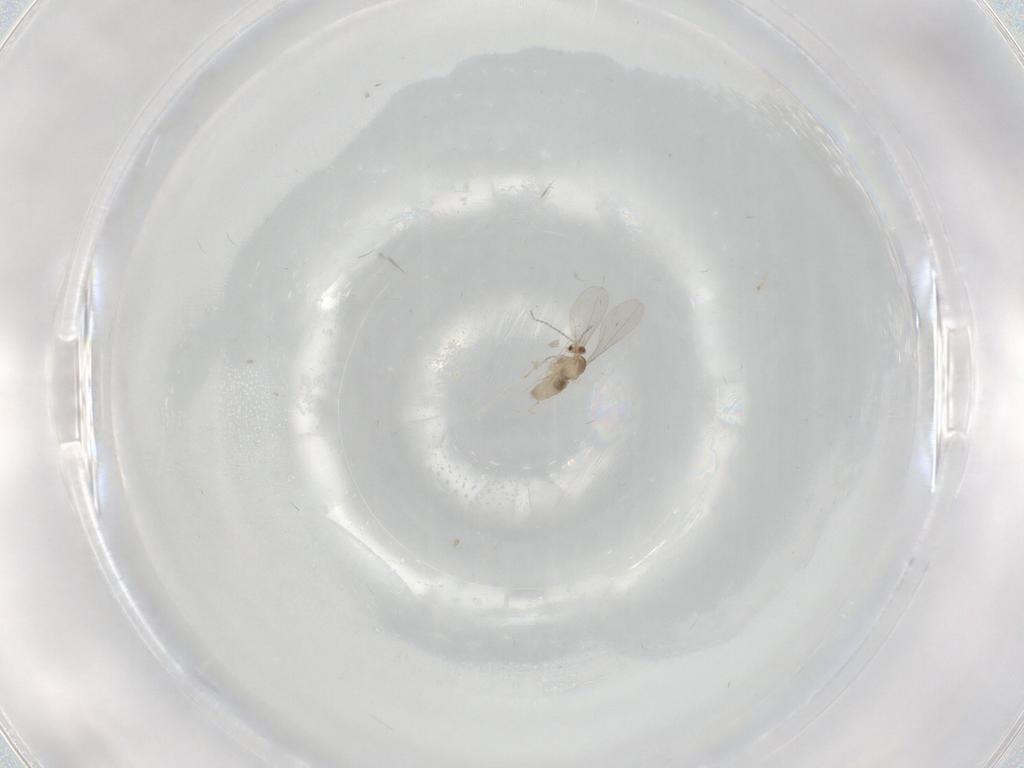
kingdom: Animalia
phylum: Arthropoda
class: Insecta
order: Diptera
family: Cecidomyiidae
